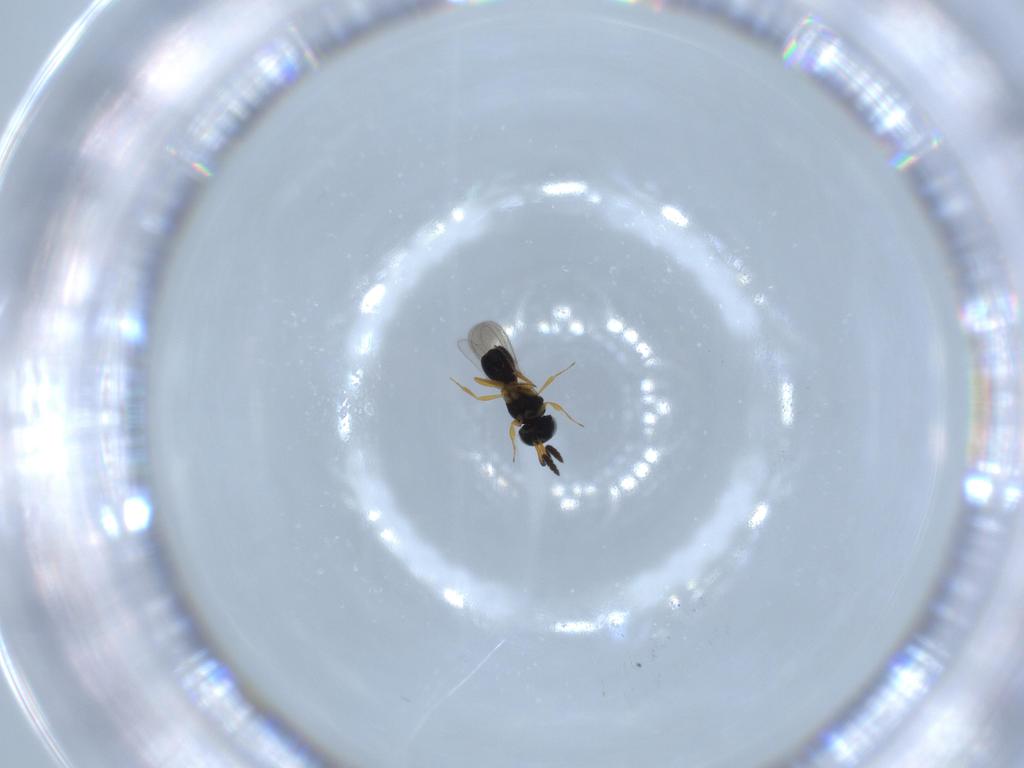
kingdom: Animalia
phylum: Arthropoda
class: Insecta
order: Hymenoptera
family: Scelionidae
